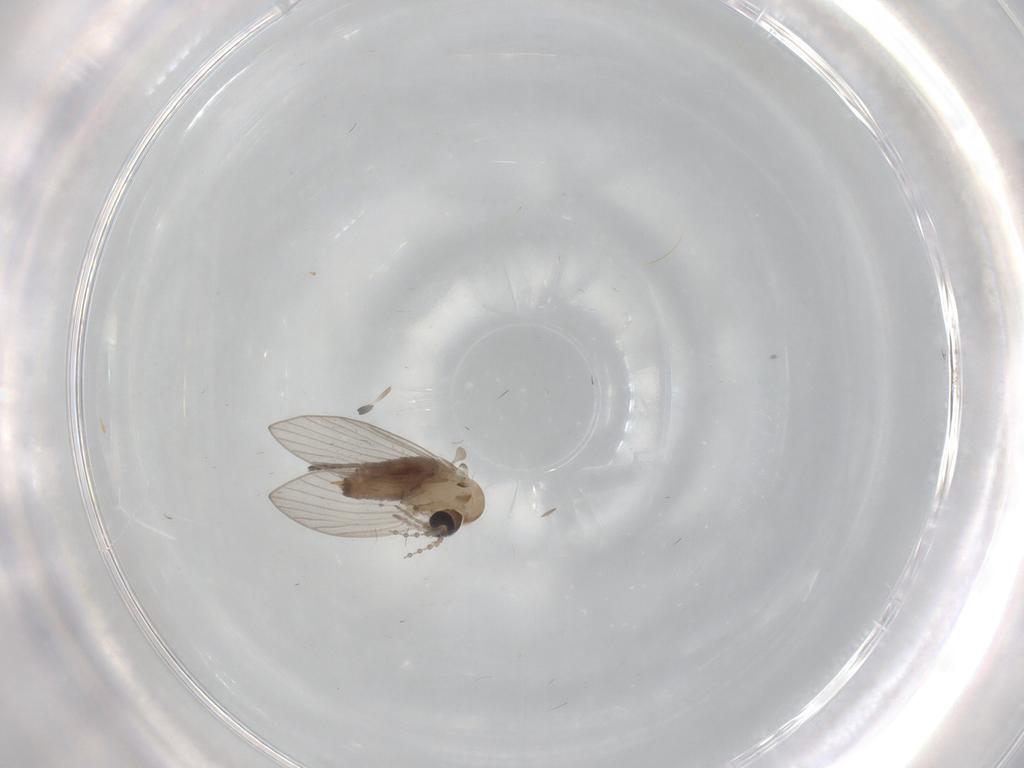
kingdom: Animalia
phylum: Arthropoda
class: Insecta
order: Diptera
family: Psychodidae
